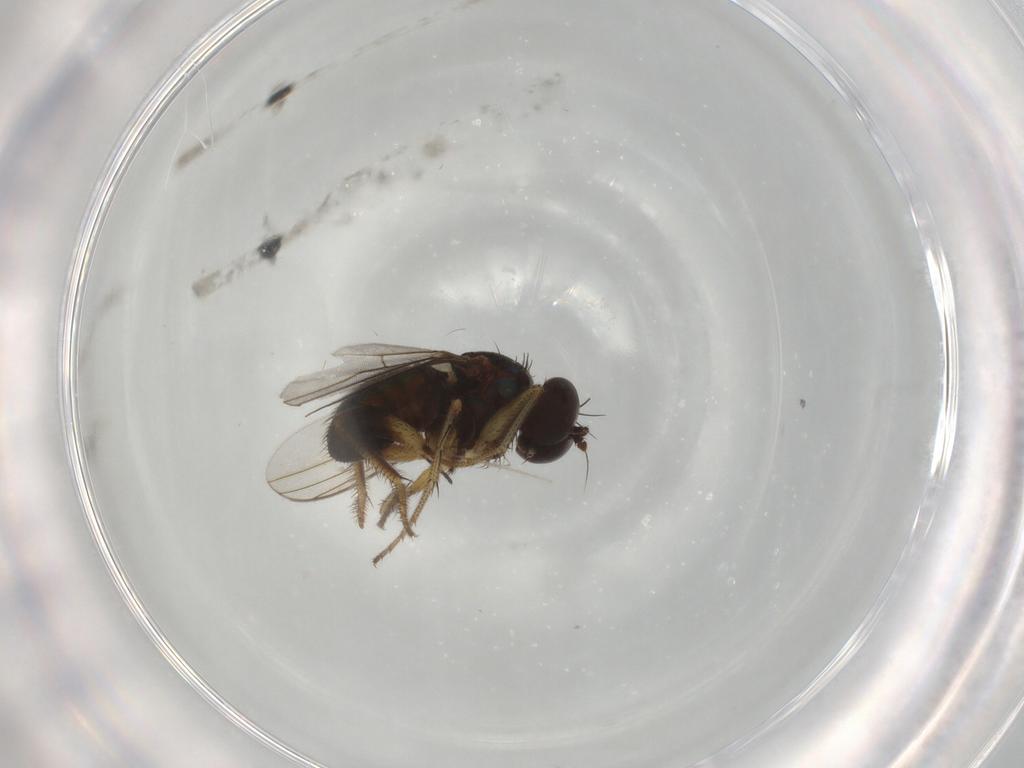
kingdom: Animalia
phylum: Arthropoda
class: Insecta
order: Diptera
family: Dolichopodidae
